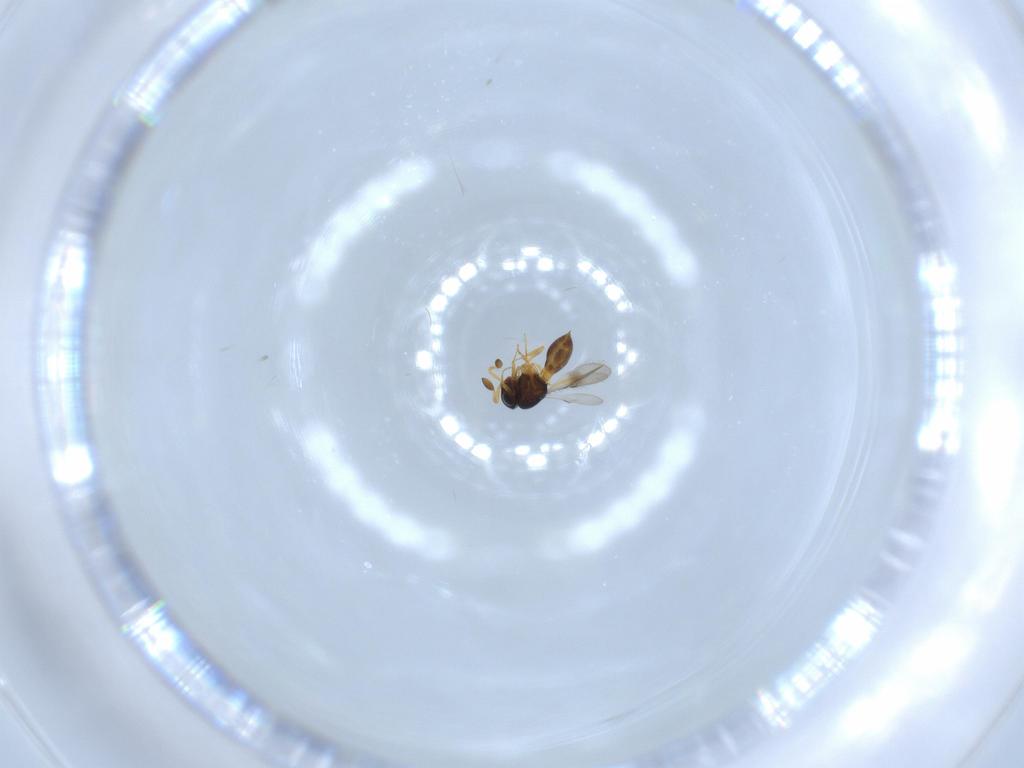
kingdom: Animalia
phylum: Arthropoda
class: Insecta
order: Hymenoptera
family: Scelionidae
